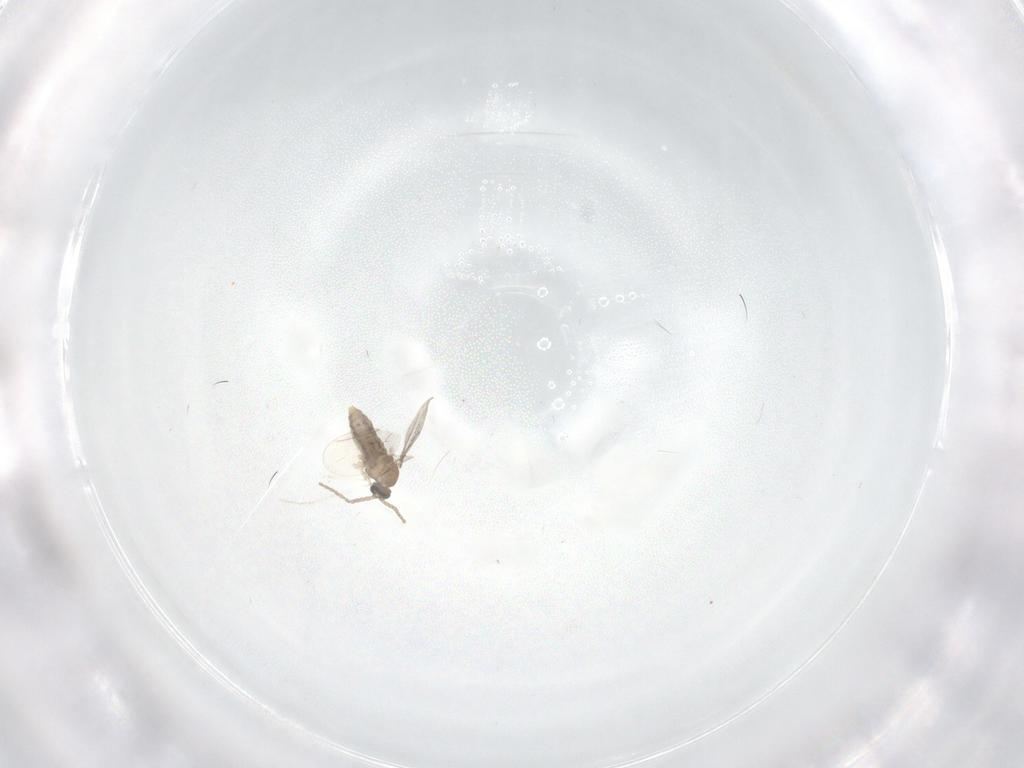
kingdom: Animalia
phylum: Arthropoda
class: Insecta
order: Diptera
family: Cecidomyiidae
